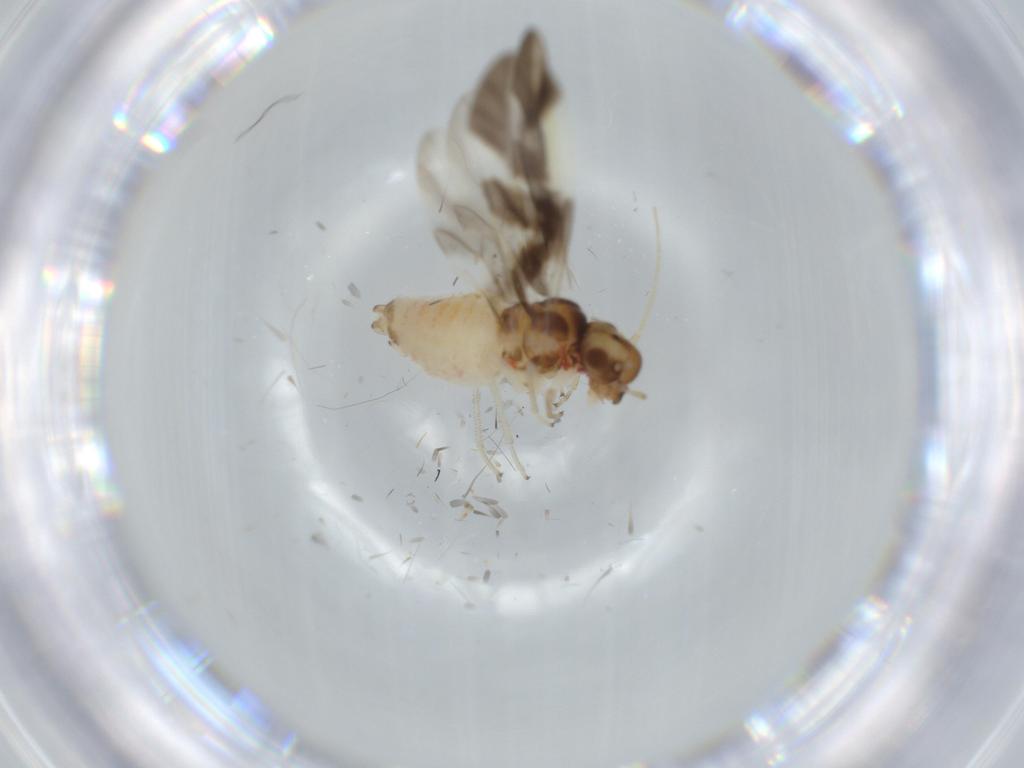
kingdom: Animalia
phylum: Arthropoda
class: Insecta
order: Psocodea
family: Caeciliusidae
